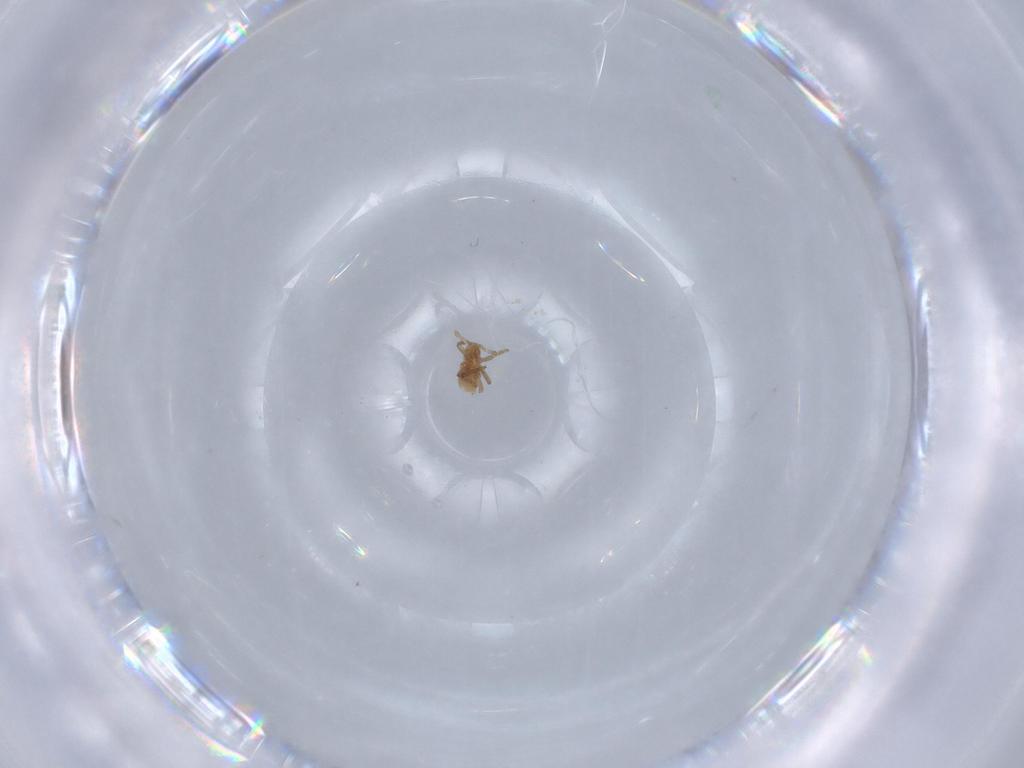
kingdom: Animalia
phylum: Arthropoda
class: Insecta
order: Hemiptera
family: Aphididae
